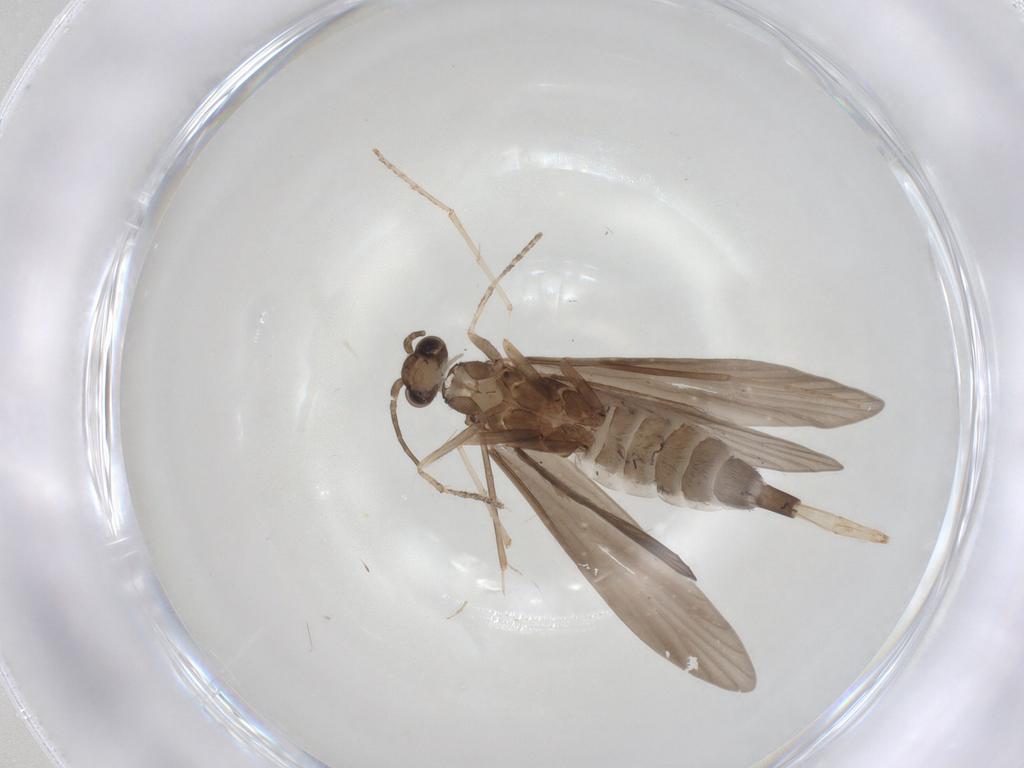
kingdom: Animalia
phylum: Arthropoda
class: Insecta
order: Trichoptera
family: Xiphocentronidae
